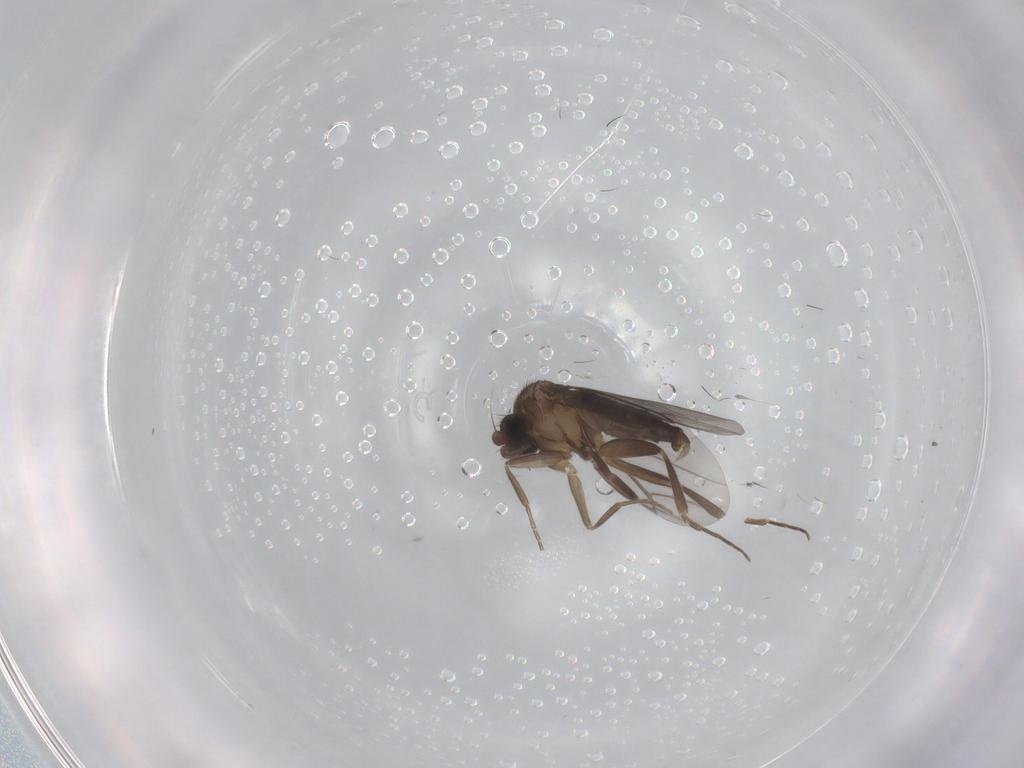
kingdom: Animalia
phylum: Arthropoda
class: Insecta
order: Diptera
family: Phoridae
